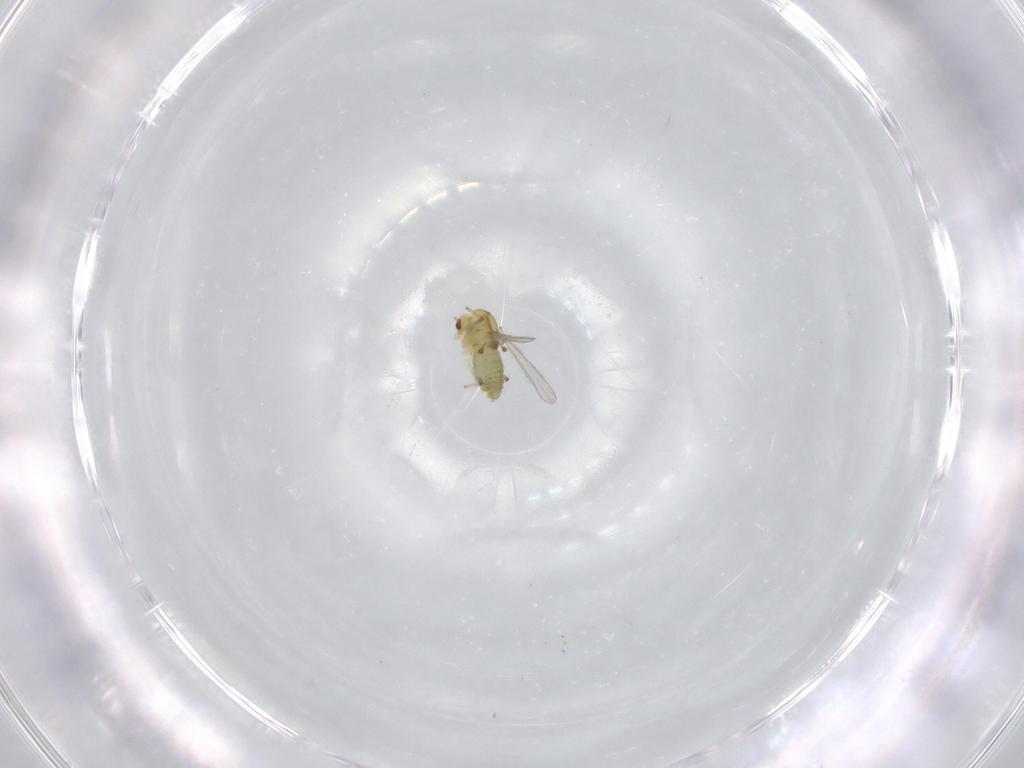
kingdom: Animalia
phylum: Arthropoda
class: Insecta
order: Diptera
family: Chironomidae
